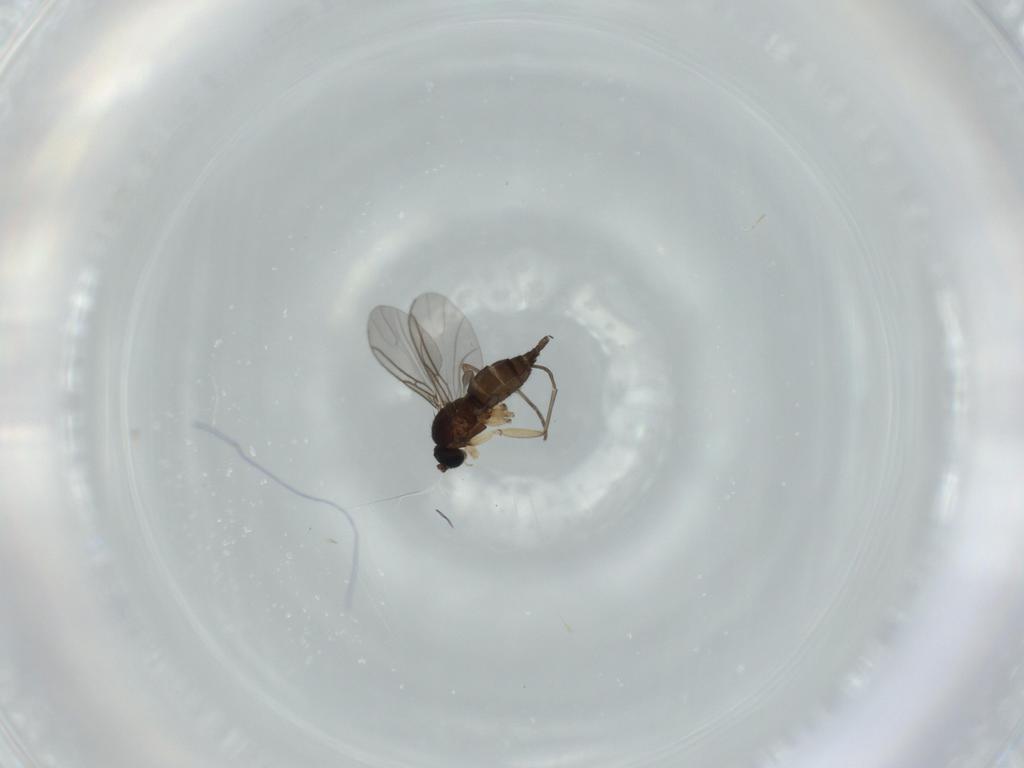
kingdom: Animalia
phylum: Arthropoda
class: Insecta
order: Diptera
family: Sciaridae
